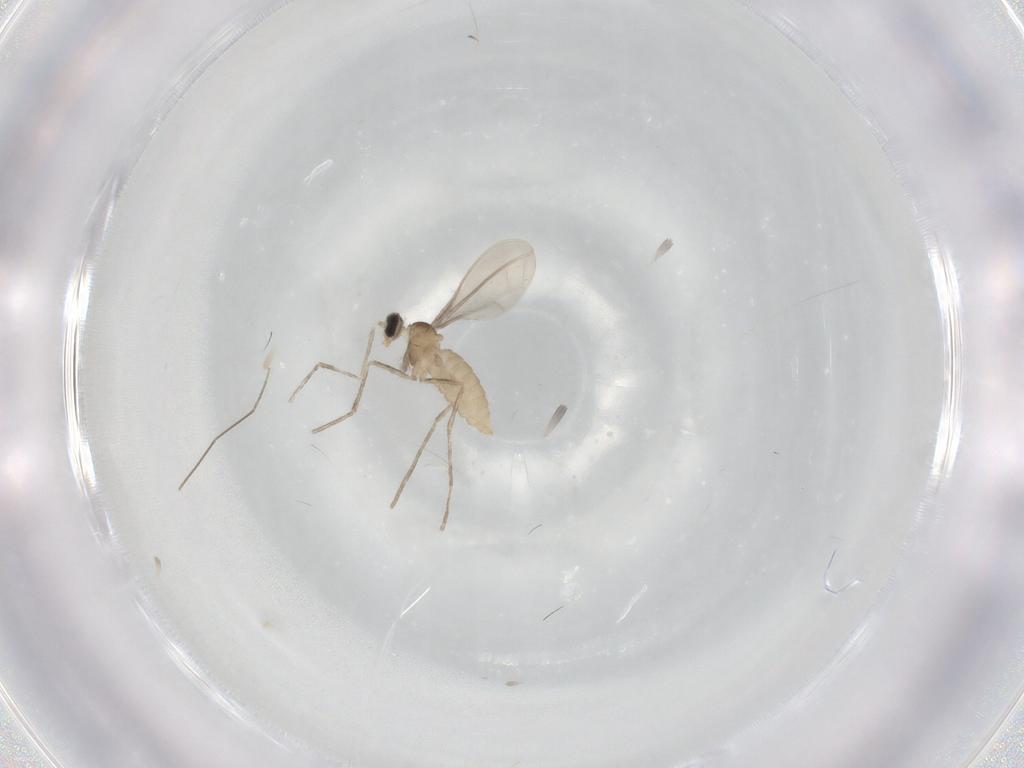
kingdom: Animalia
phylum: Arthropoda
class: Insecta
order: Diptera
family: Cecidomyiidae
